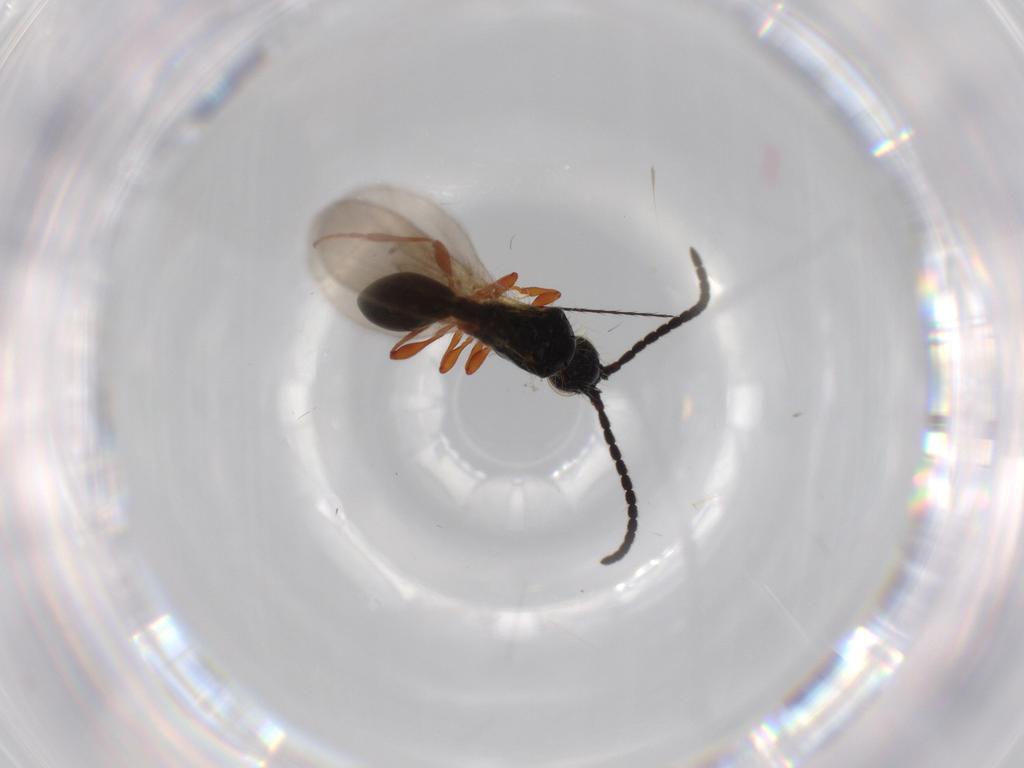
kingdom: Animalia
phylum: Arthropoda
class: Insecta
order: Hymenoptera
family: Diapriidae
